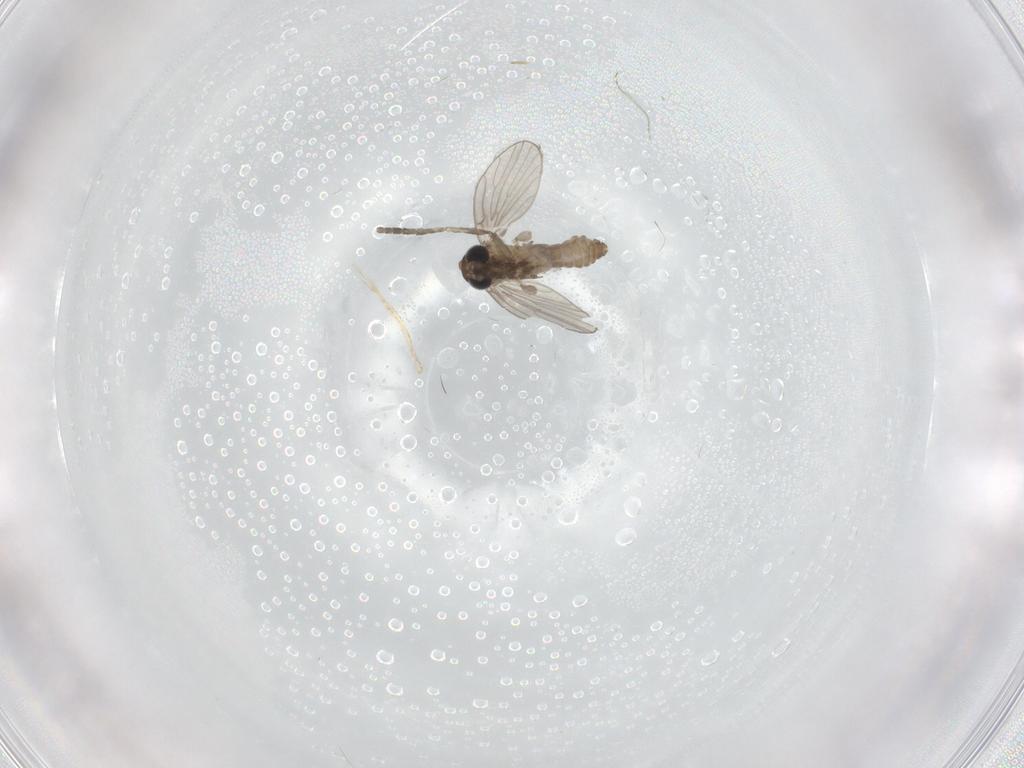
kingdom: Animalia
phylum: Arthropoda
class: Insecta
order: Diptera
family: Psychodidae
